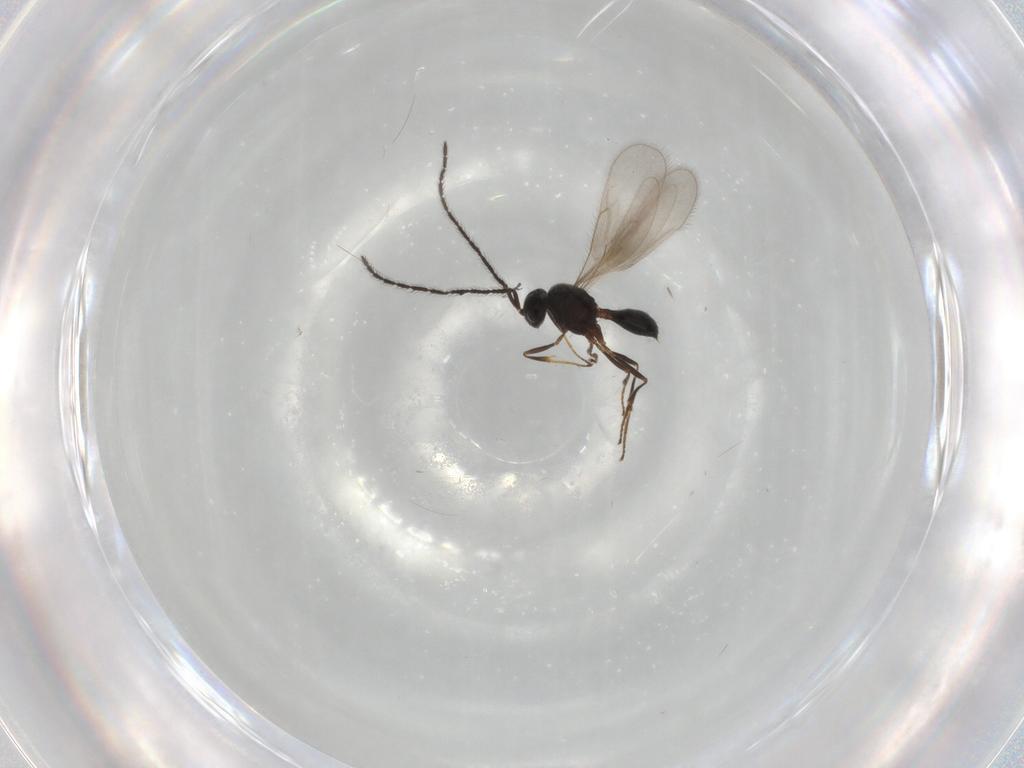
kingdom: Animalia
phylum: Arthropoda
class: Insecta
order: Hymenoptera
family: Scelionidae
